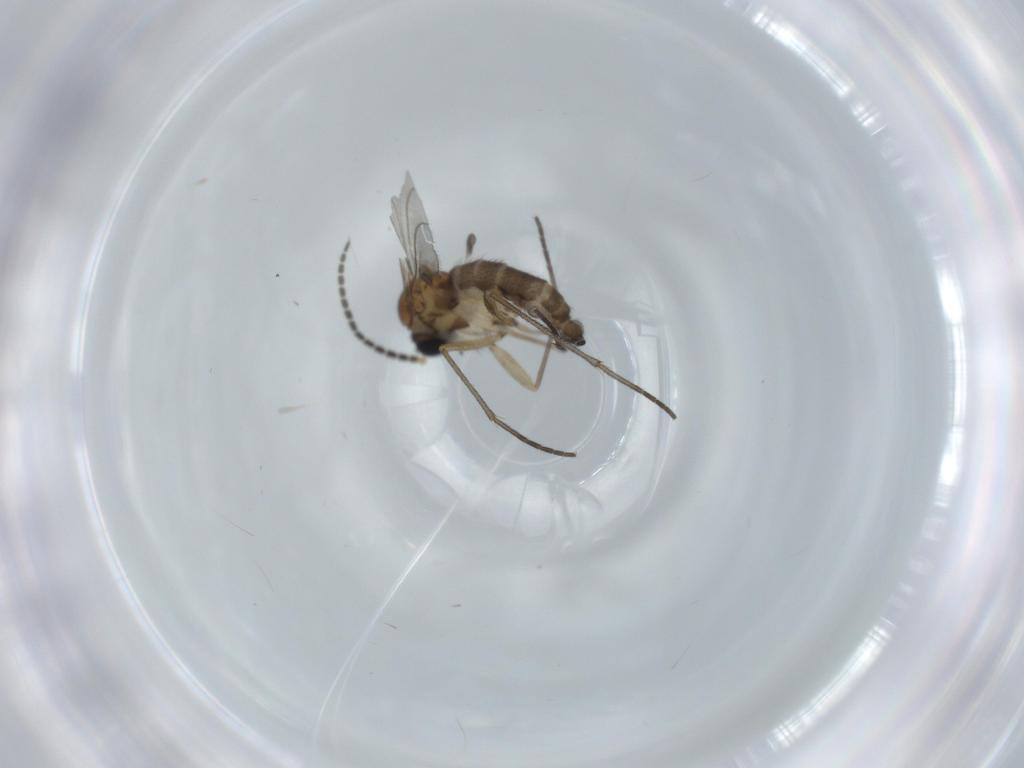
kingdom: Animalia
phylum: Arthropoda
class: Insecta
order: Diptera
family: Sciaridae
